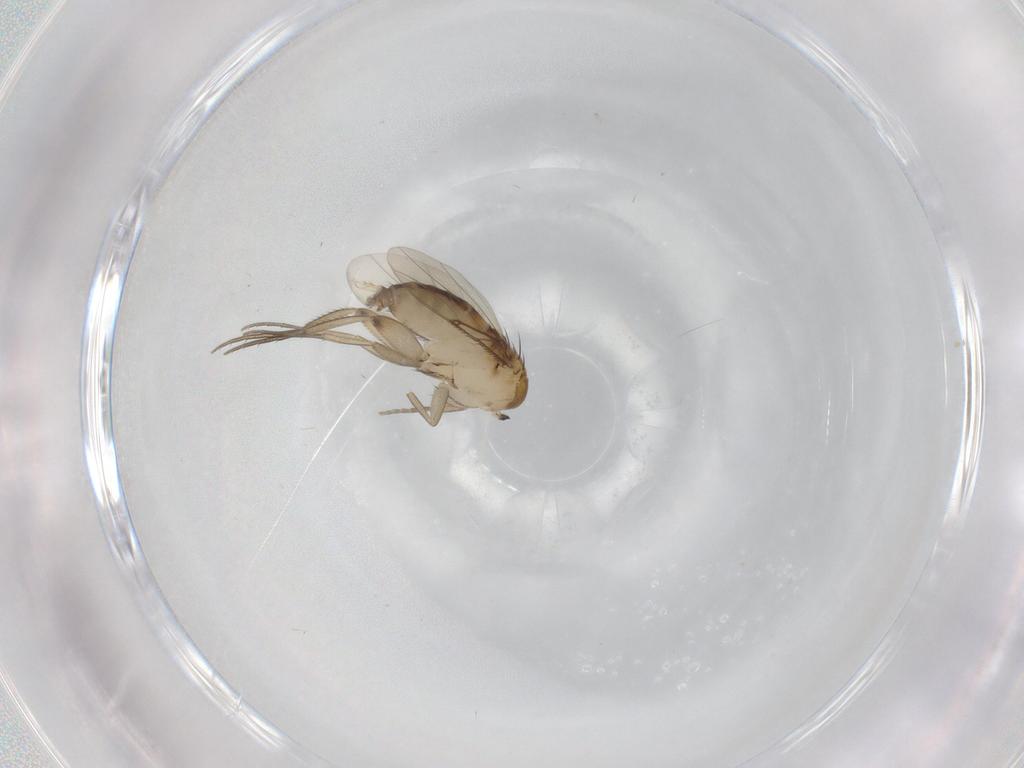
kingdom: Animalia
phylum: Arthropoda
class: Insecta
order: Diptera
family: Phoridae
